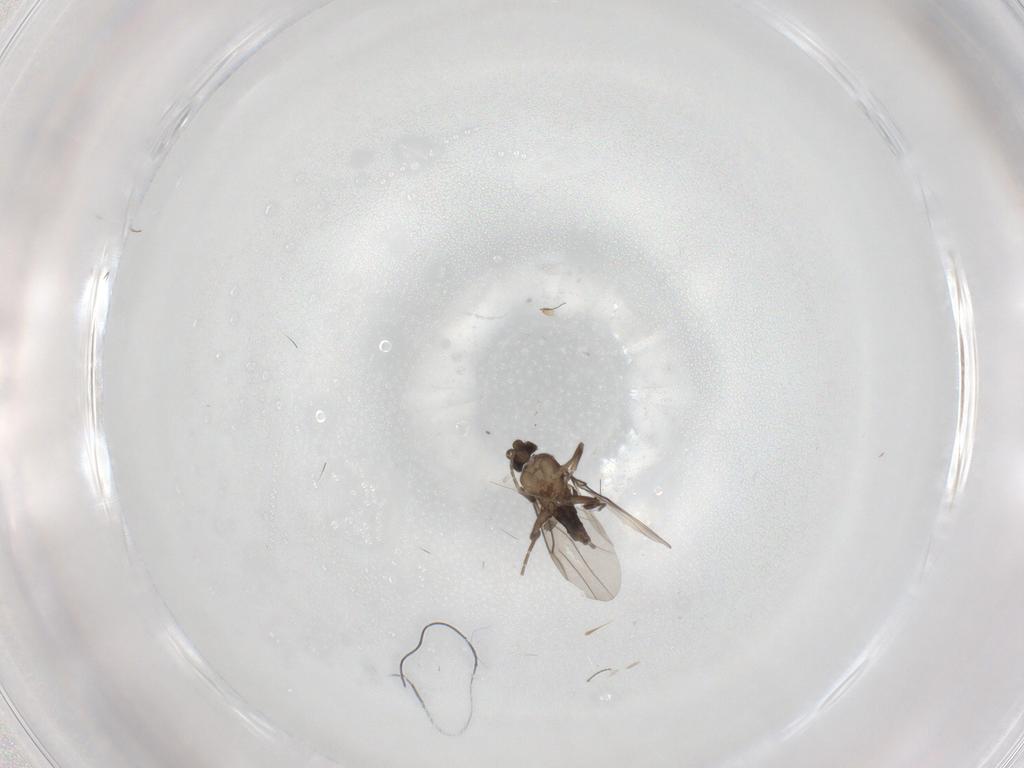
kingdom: Animalia
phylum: Arthropoda
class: Insecta
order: Diptera
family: Chironomidae
